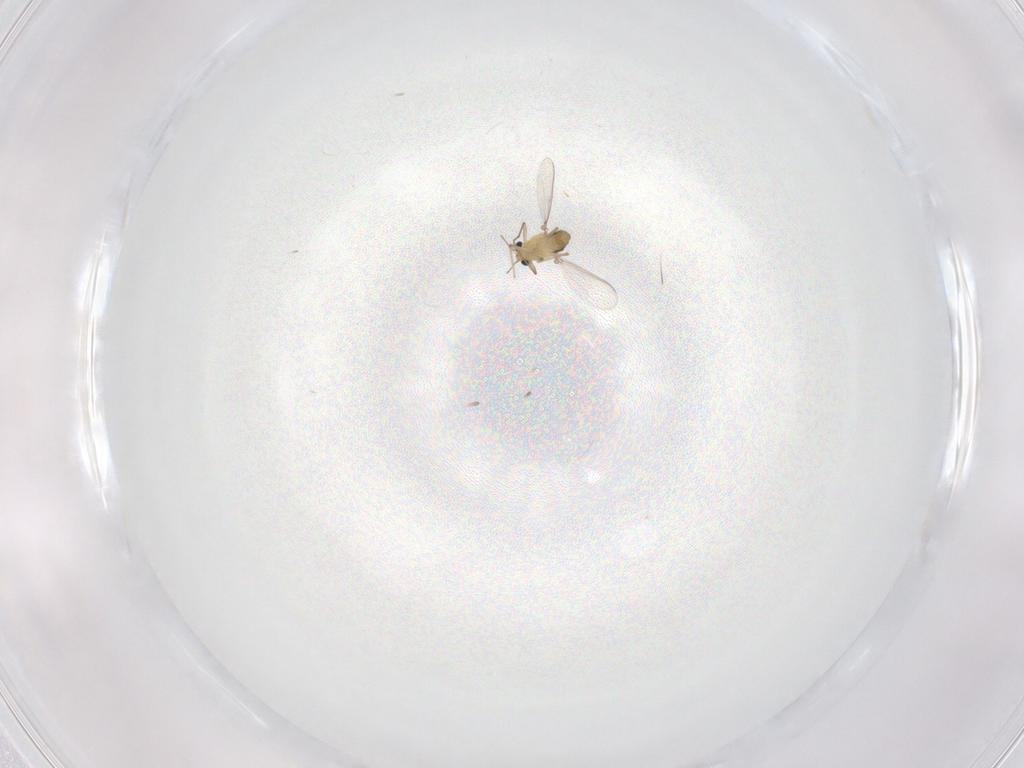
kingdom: Animalia
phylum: Arthropoda
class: Insecta
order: Diptera
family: Chironomidae
